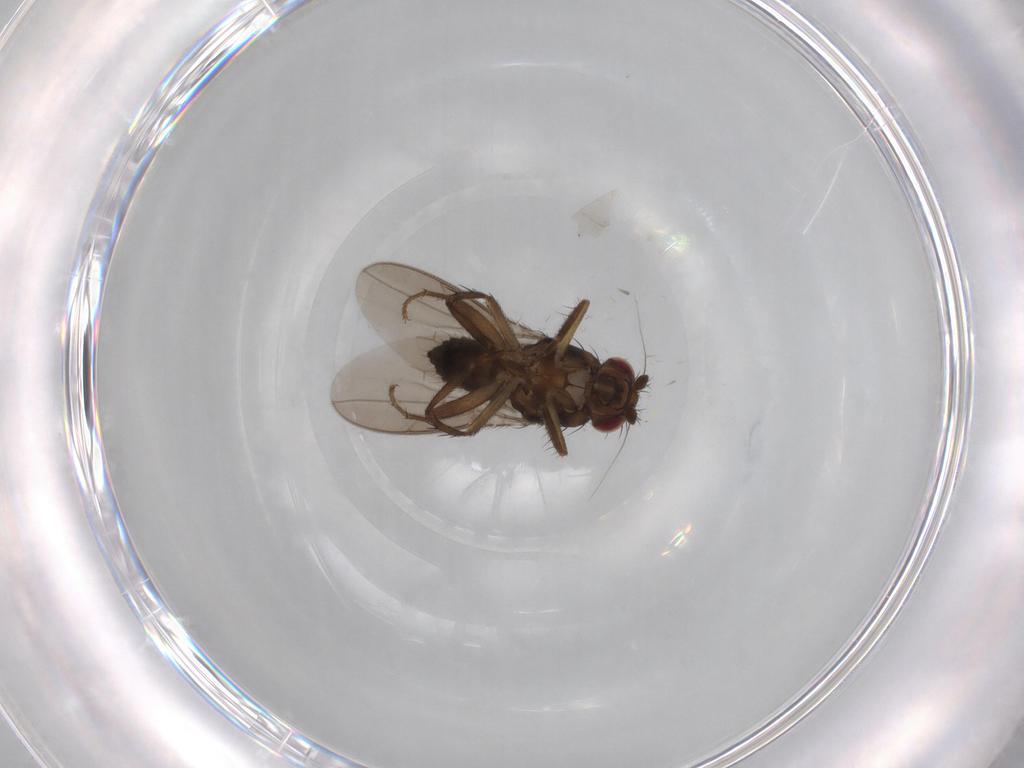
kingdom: Animalia
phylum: Arthropoda
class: Insecta
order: Diptera
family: Sphaeroceridae
